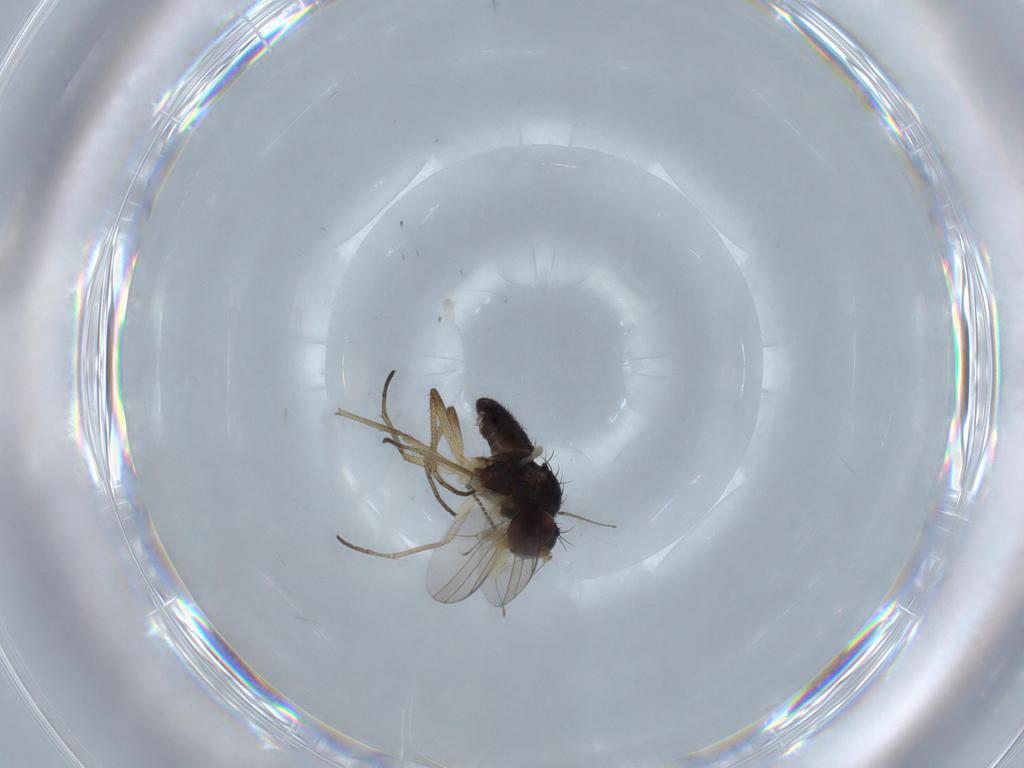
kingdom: Animalia
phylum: Arthropoda
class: Insecta
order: Diptera
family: Dolichopodidae
